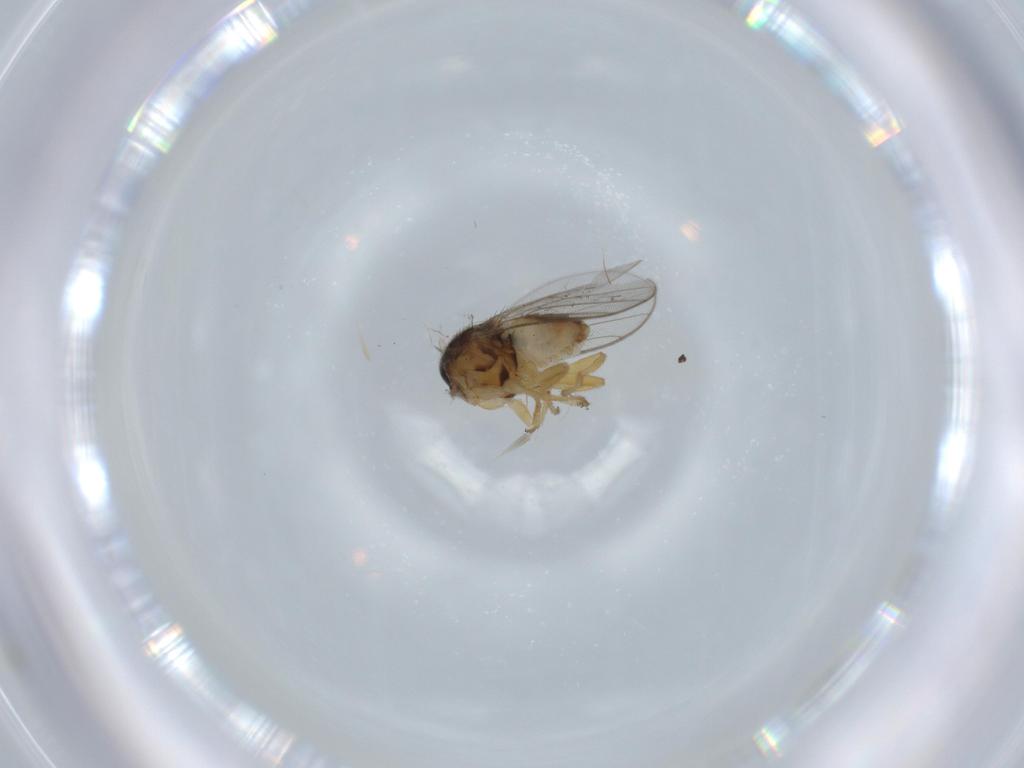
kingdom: Animalia
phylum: Arthropoda
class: Insecta
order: Diptera
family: Chloropidae
